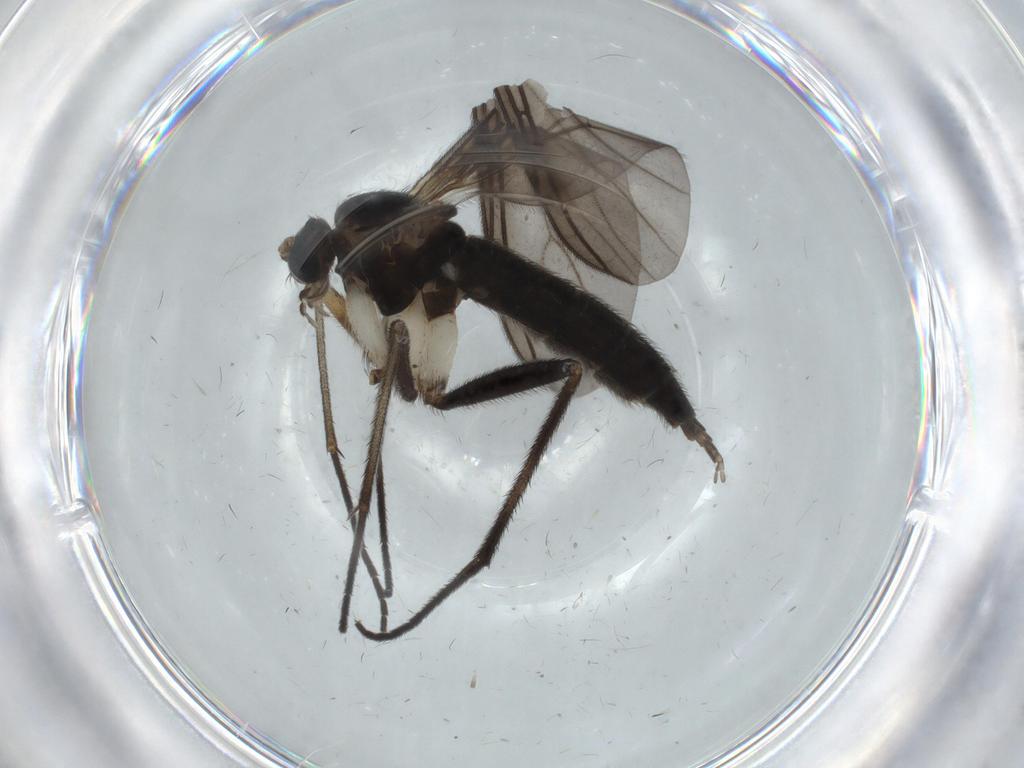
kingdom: Animalia
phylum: Arthropoda
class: Insecta
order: Diptera
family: Sciaridae
